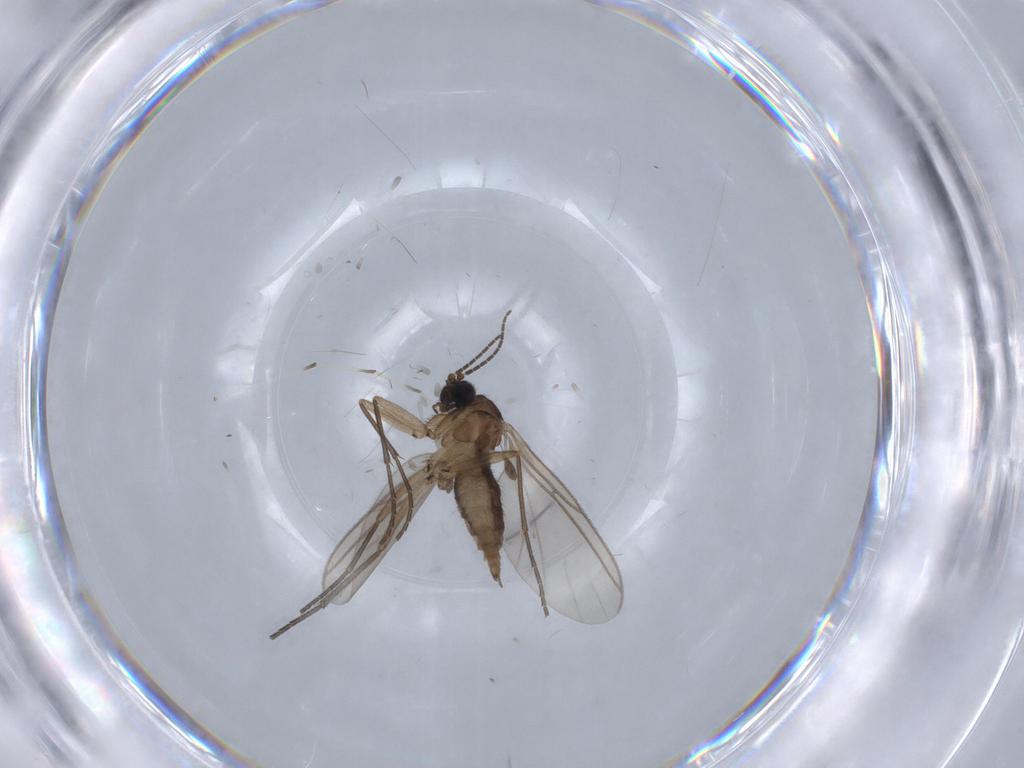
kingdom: Animalia
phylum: Arthropoda
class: Insecta
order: Diptera
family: Sciaridae
